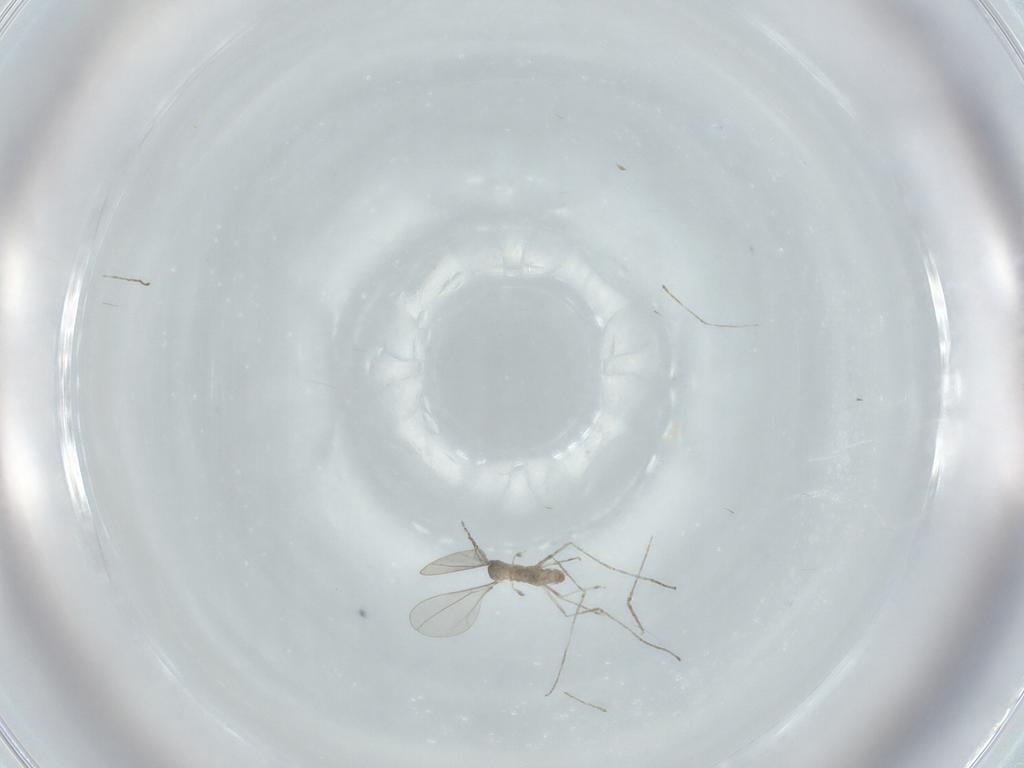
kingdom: Animalia
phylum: Arthropoda
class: Insecta
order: Diptera
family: Cecidomyiidae
